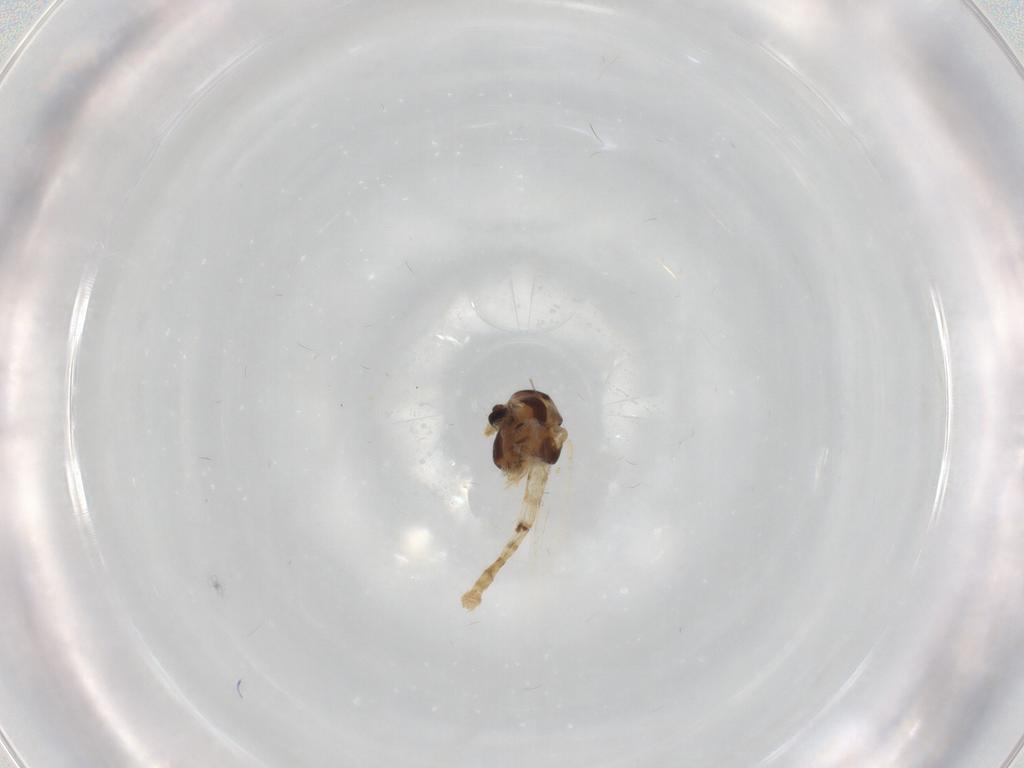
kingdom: Animalia
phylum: Arthropoda
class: Insecta
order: Diptera
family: Chironomidae
